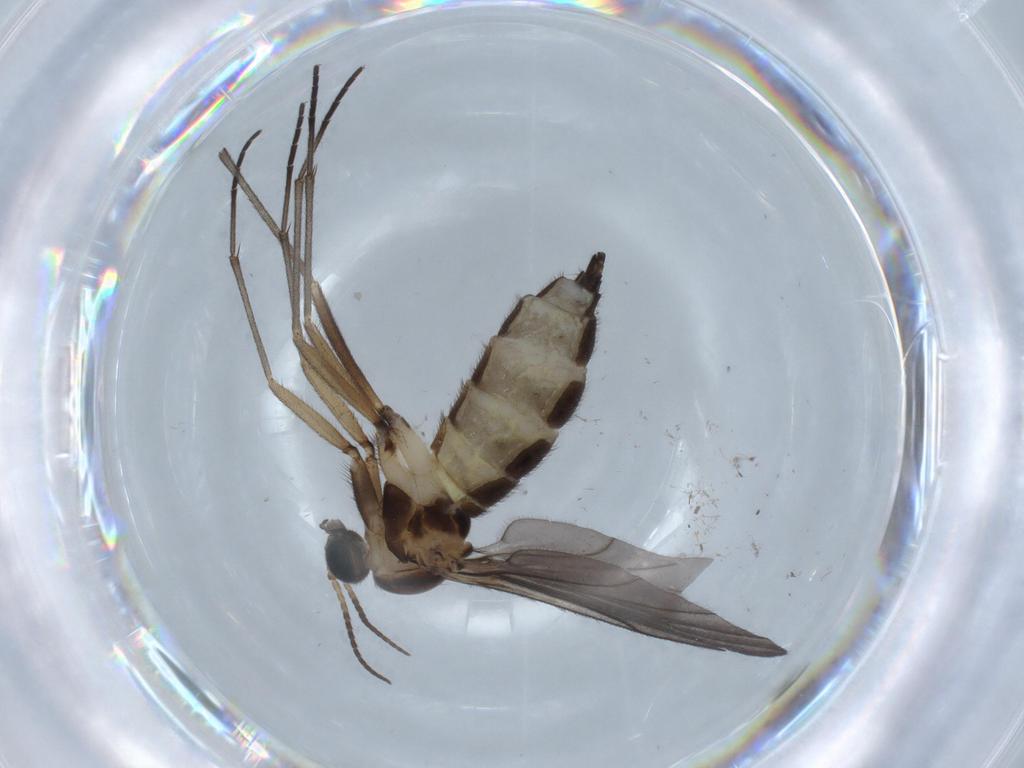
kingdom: Animalia
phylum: Arthropoda
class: Insecta
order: Diptera
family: Sciaridae
